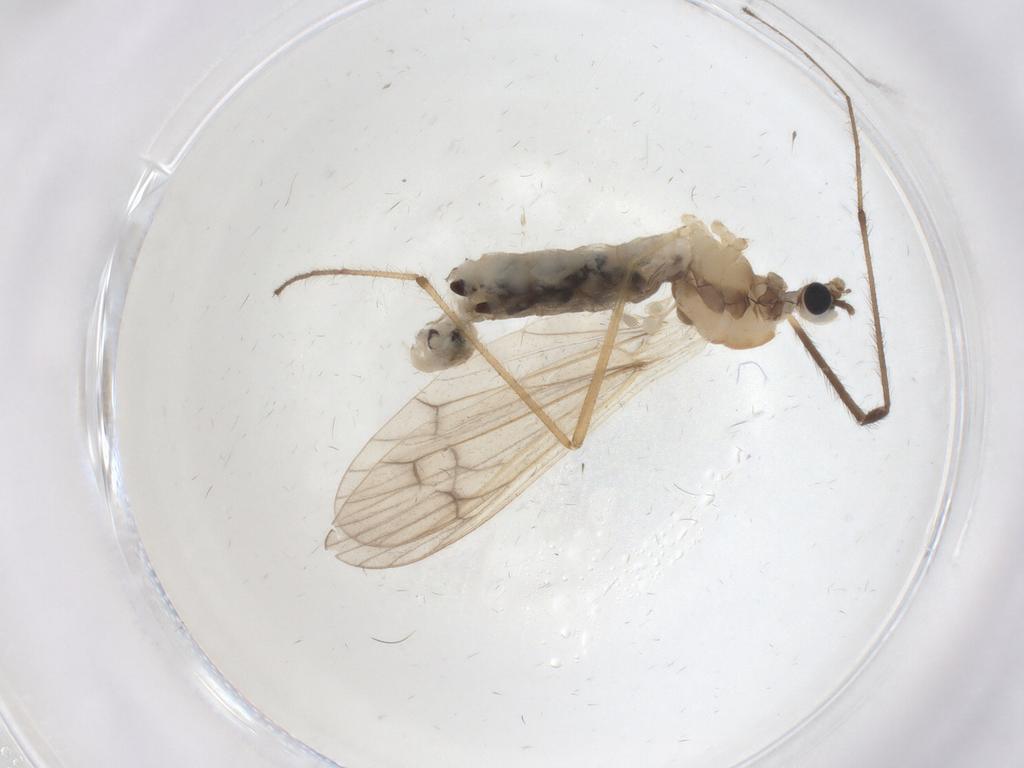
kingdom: Animalia
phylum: Arthropoda
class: Insecta
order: Diptera
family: Limoniidae
